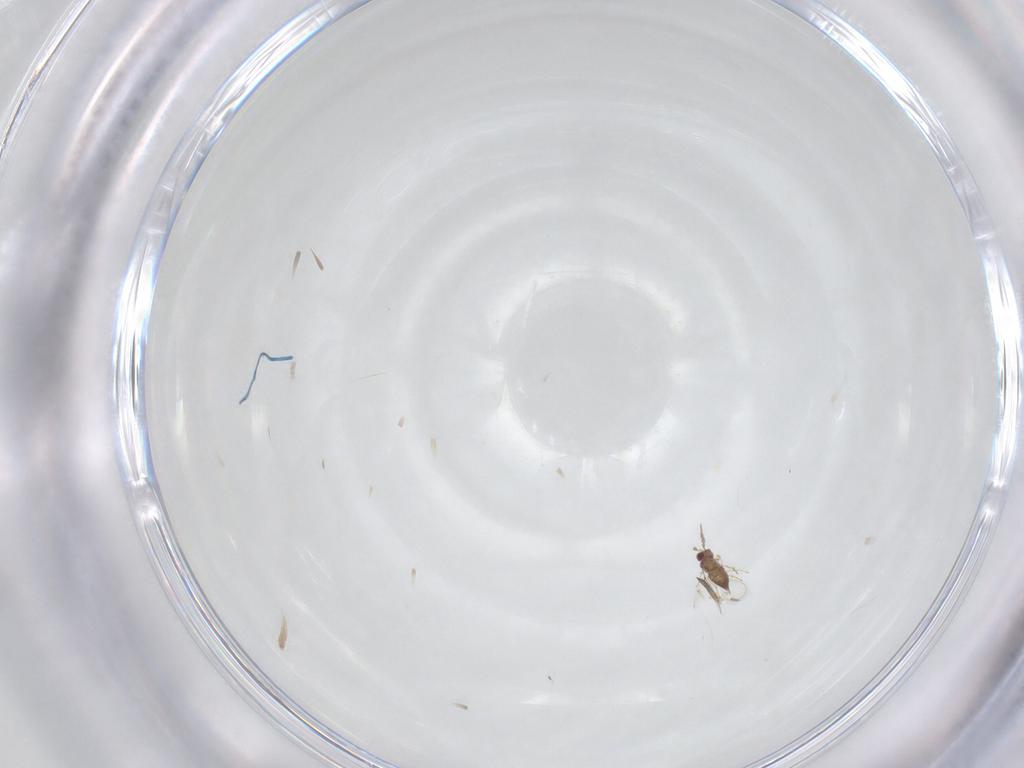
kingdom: Animalia
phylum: Arthropoda
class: Insecta
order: Hymenoptera
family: Trichogrammatidae
